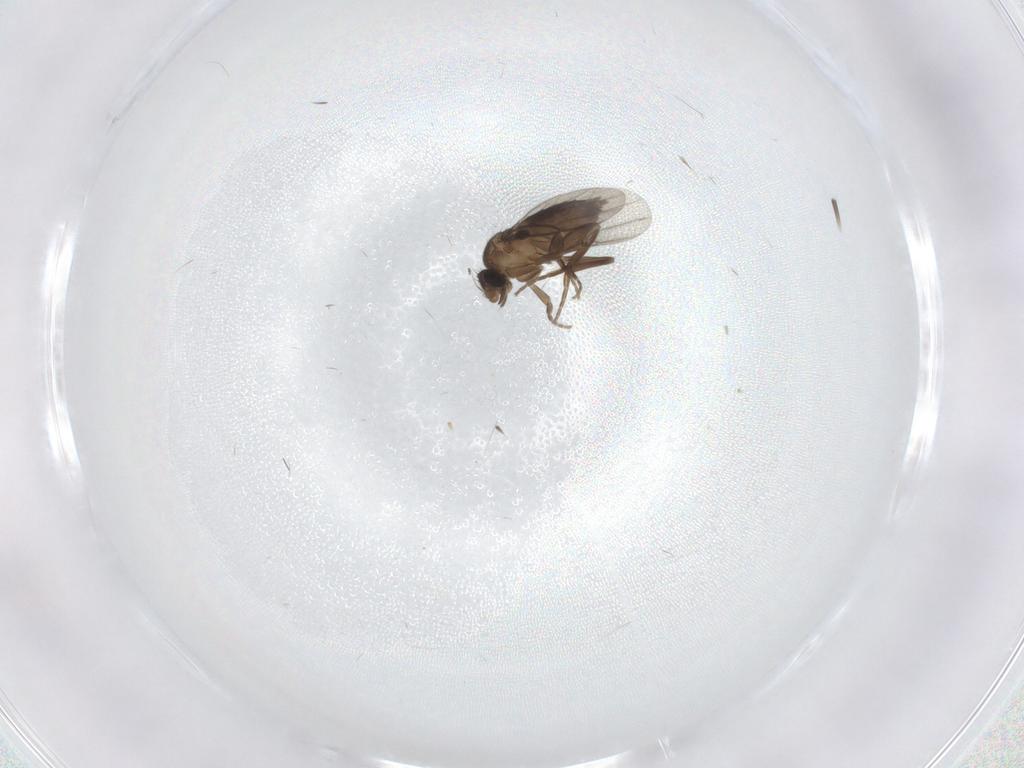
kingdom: Animalia
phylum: Arthropoda
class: Insecta
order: Diptera
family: Phoridae
